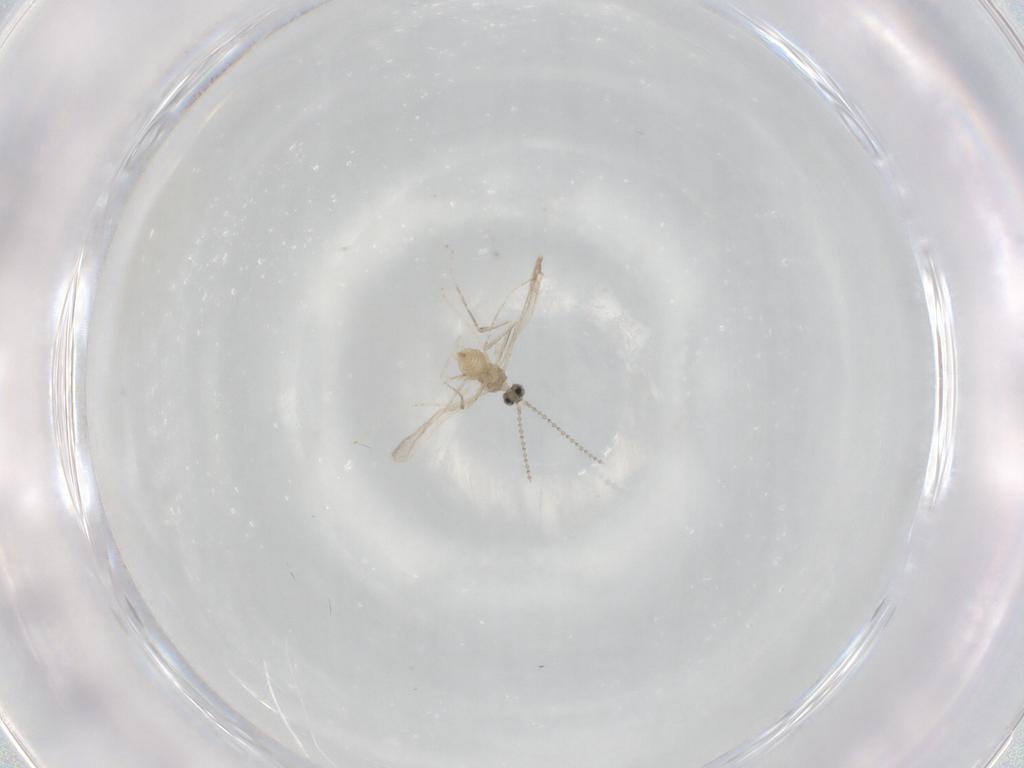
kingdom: Animalia
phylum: Arthropoda
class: Insecta
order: Diptera
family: Cecidomyiidae
